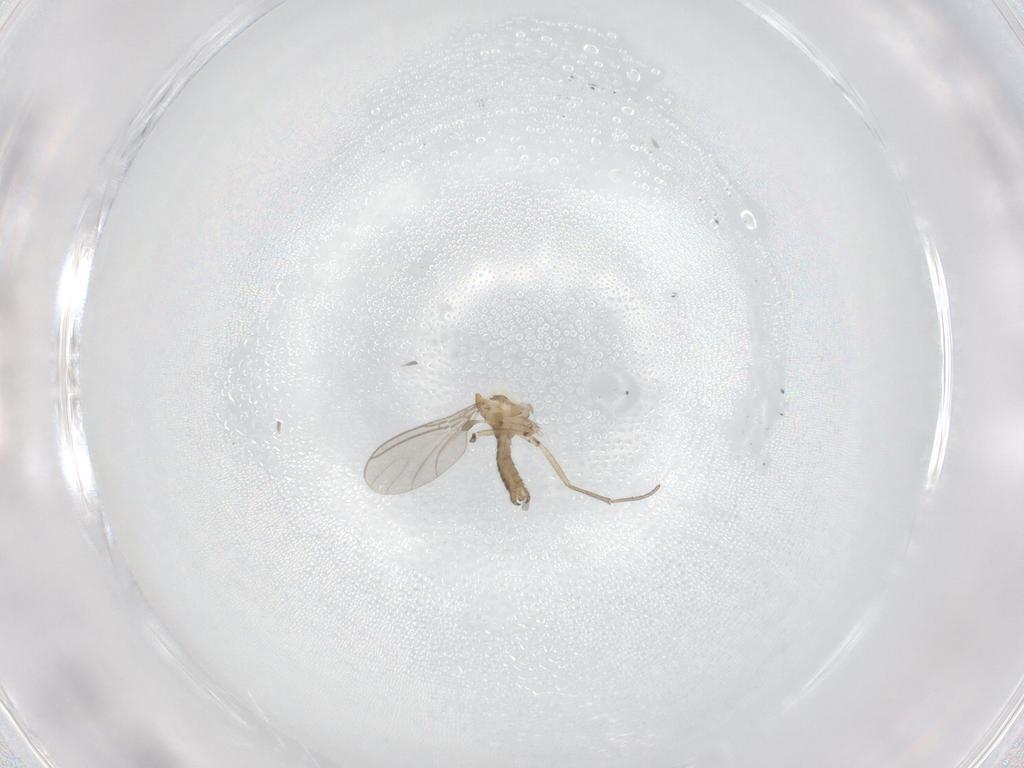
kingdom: Animalia
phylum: Arthropoda
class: Insecta
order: Diptera
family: Sciaridae
